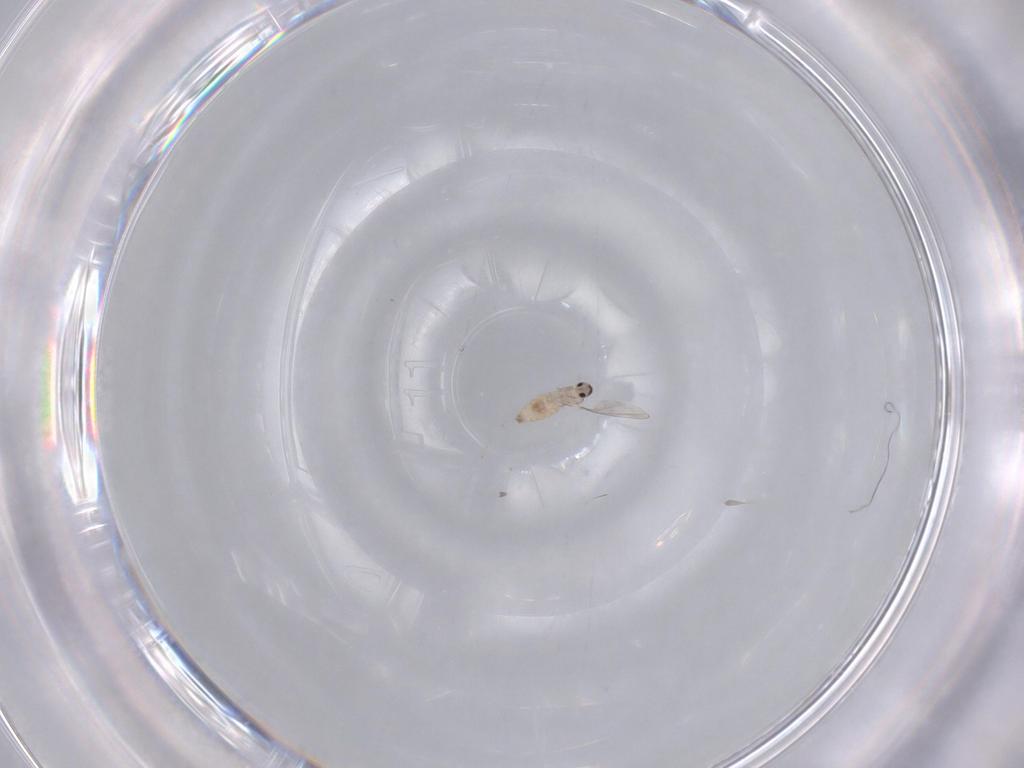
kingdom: Animalia
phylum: Arthropoda
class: Insecta
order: Diptera
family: Cecidomyiidae
